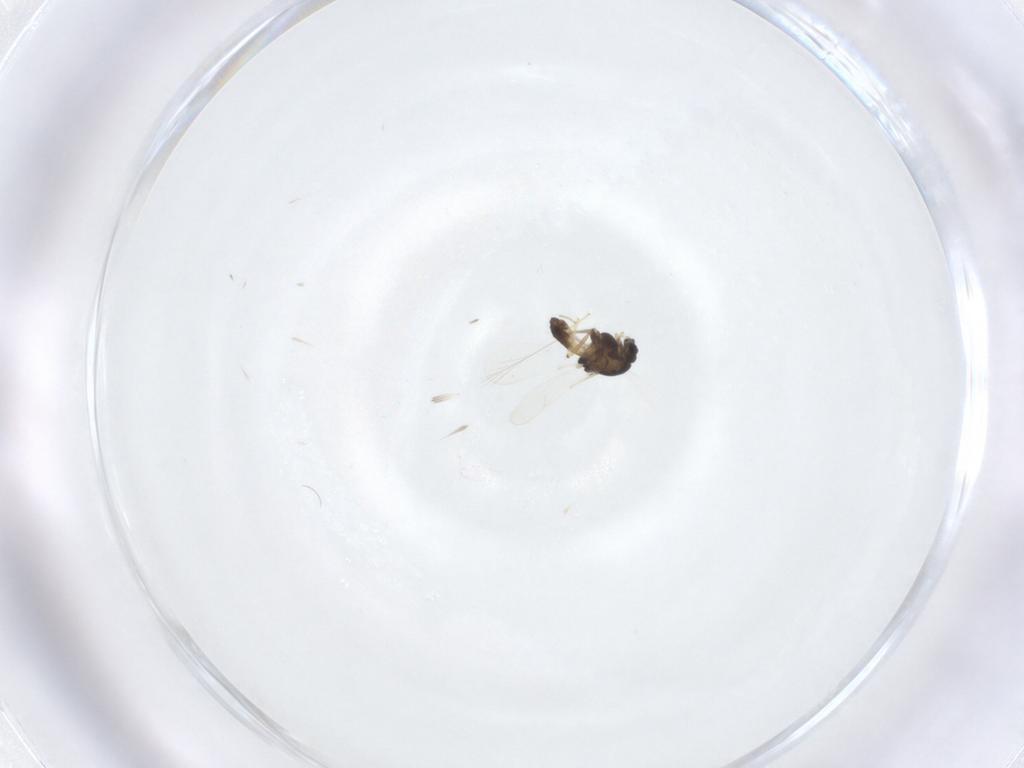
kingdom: Animalia
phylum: Arthropoda
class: Insecta
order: Diptera
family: Chironomidae
